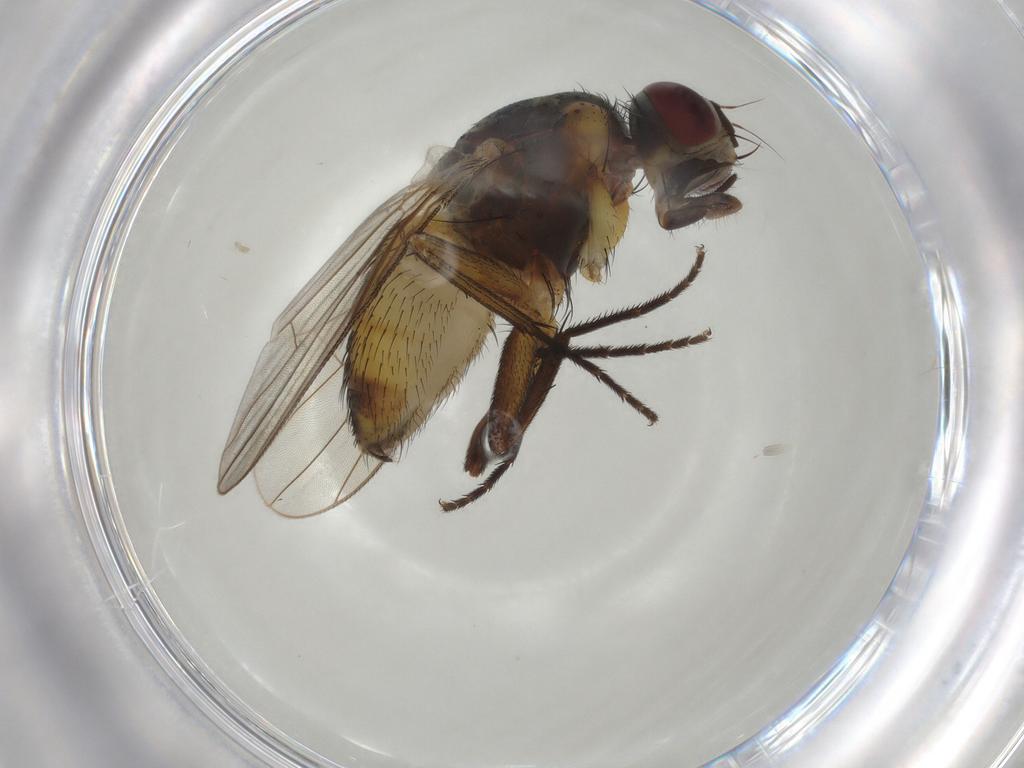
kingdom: Animalia
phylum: Arthropoda
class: Insecta
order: Diptera
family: Muscidae
